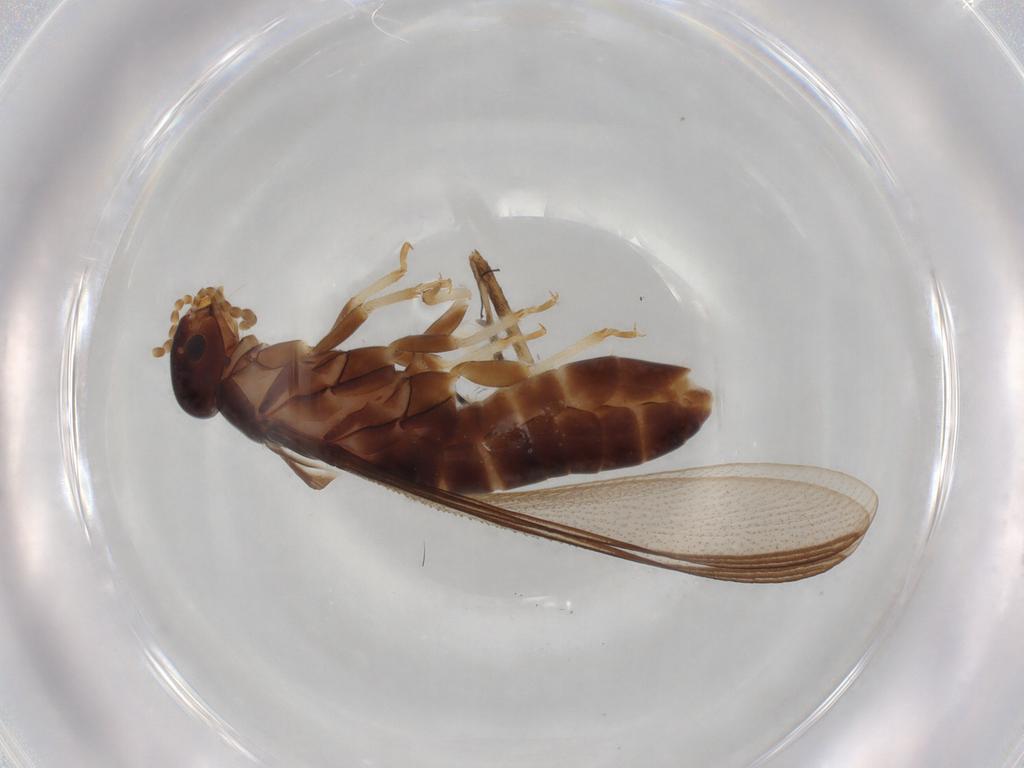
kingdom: Animalia
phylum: Arthropoda
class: Insecta
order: Blattodea
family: Kalotermitidae
